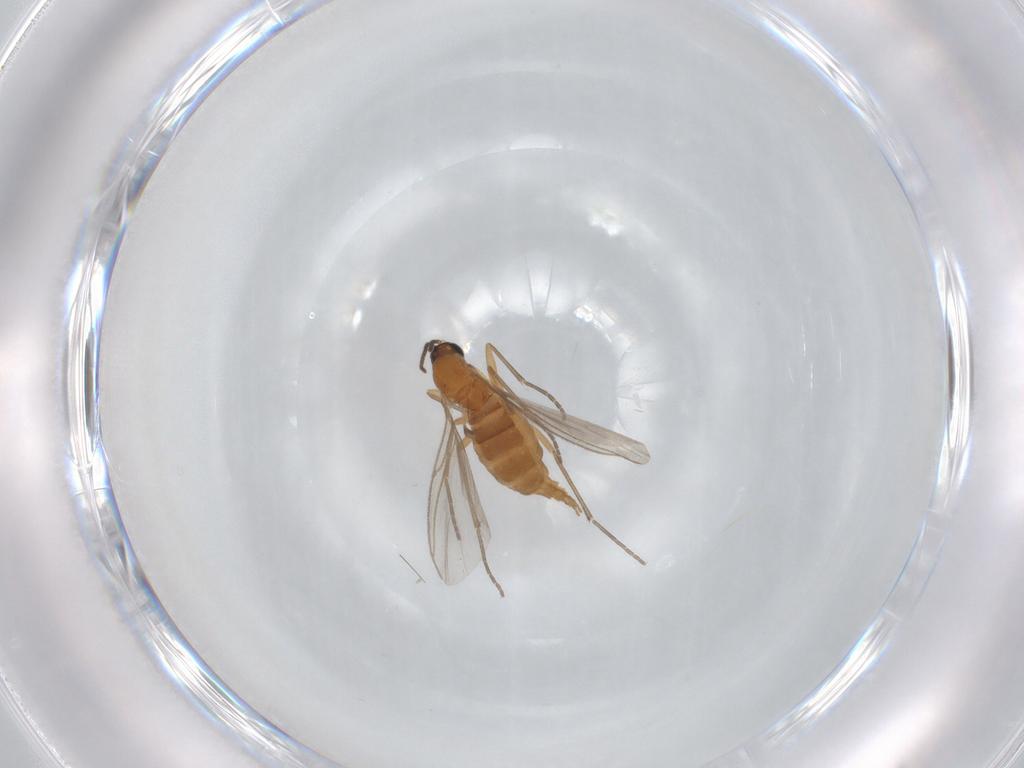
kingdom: Animalia
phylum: Arthropoda
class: Insecta
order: Diptera
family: Sciaridae
